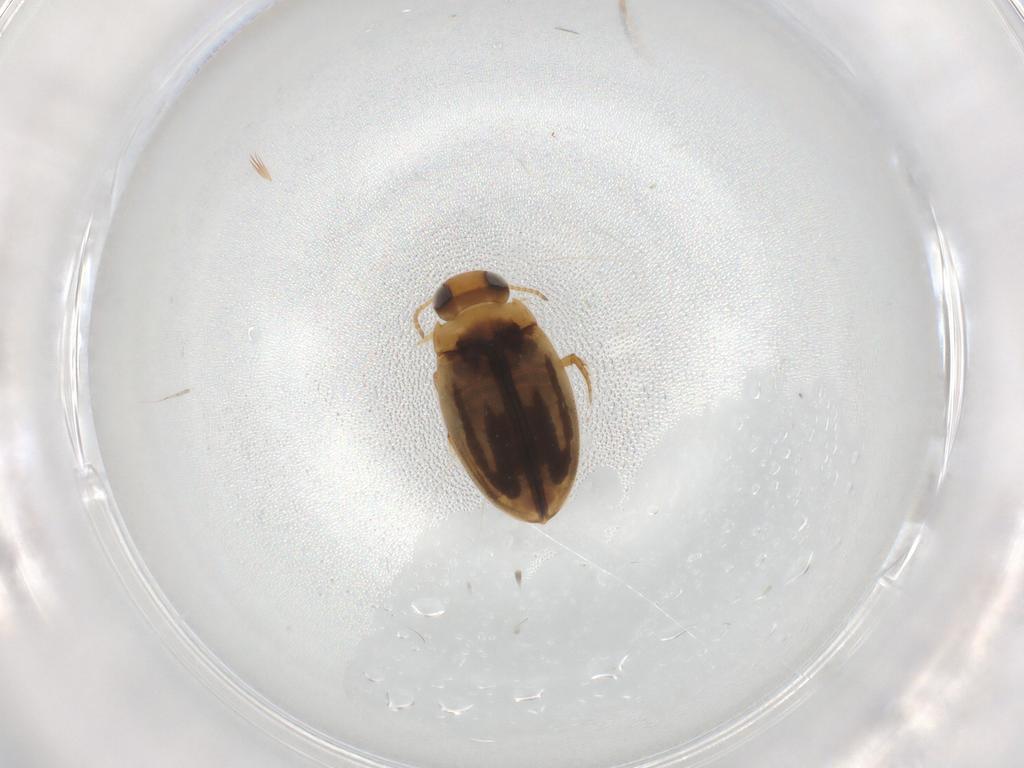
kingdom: Animalia
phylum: Arthropoda
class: Insecta
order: Coleoptera
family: Staphylinidae
